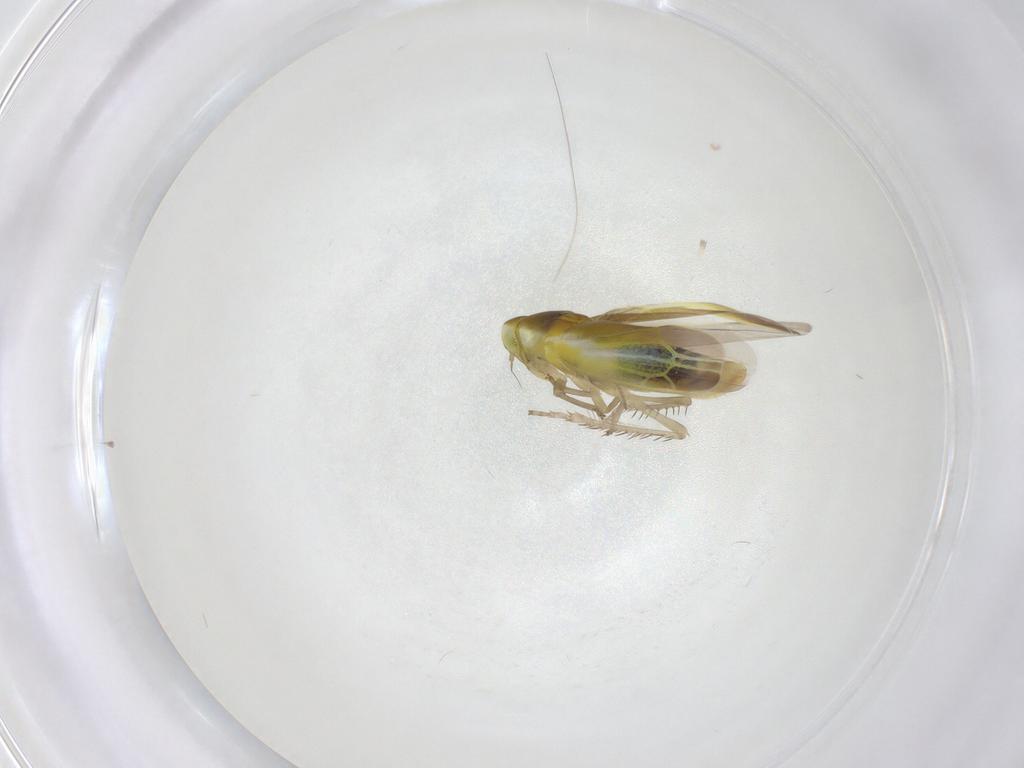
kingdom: Animalia
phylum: Arthropoda
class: Insecta
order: Hemiptera
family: Cicadellidae
